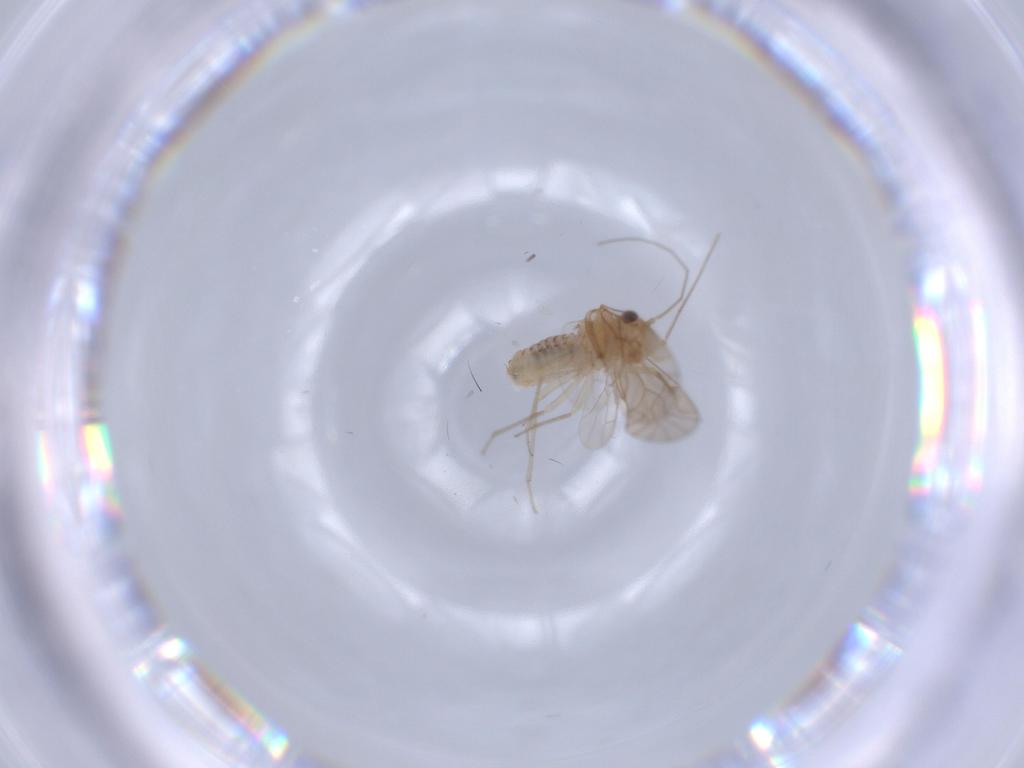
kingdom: Animalia
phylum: Arthropoda
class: Insecta
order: Psocodea
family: Lachesillidae
